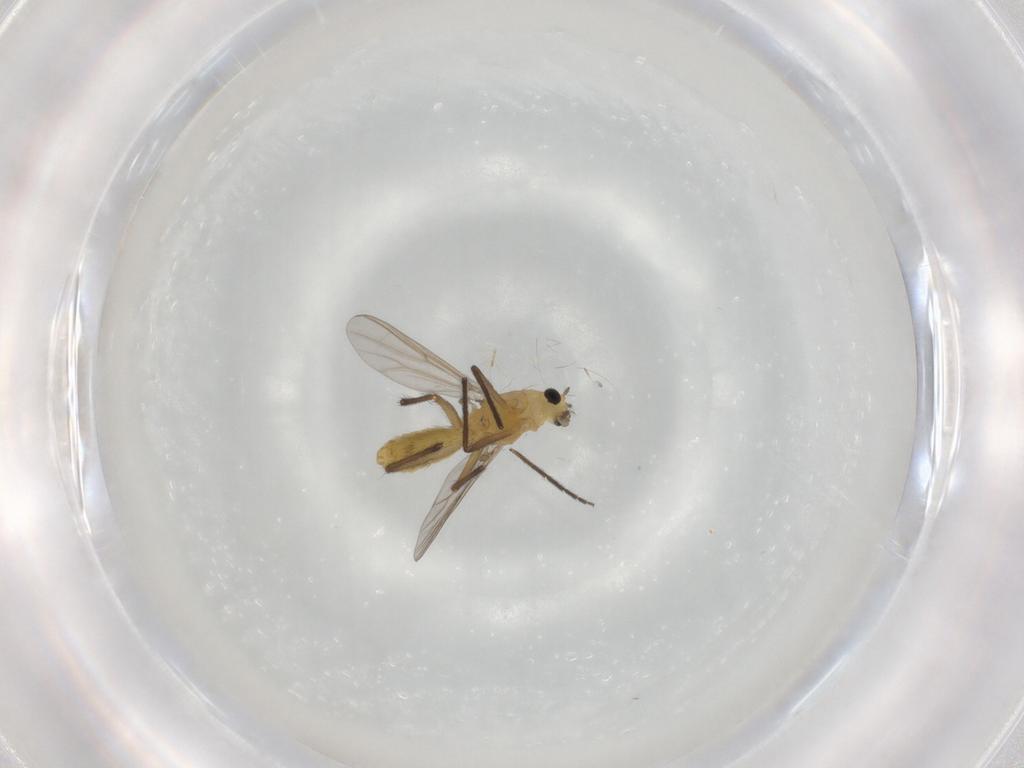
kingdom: Animalia
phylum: Arthropoda
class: Insecta
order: Diptera
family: Chironomidae
